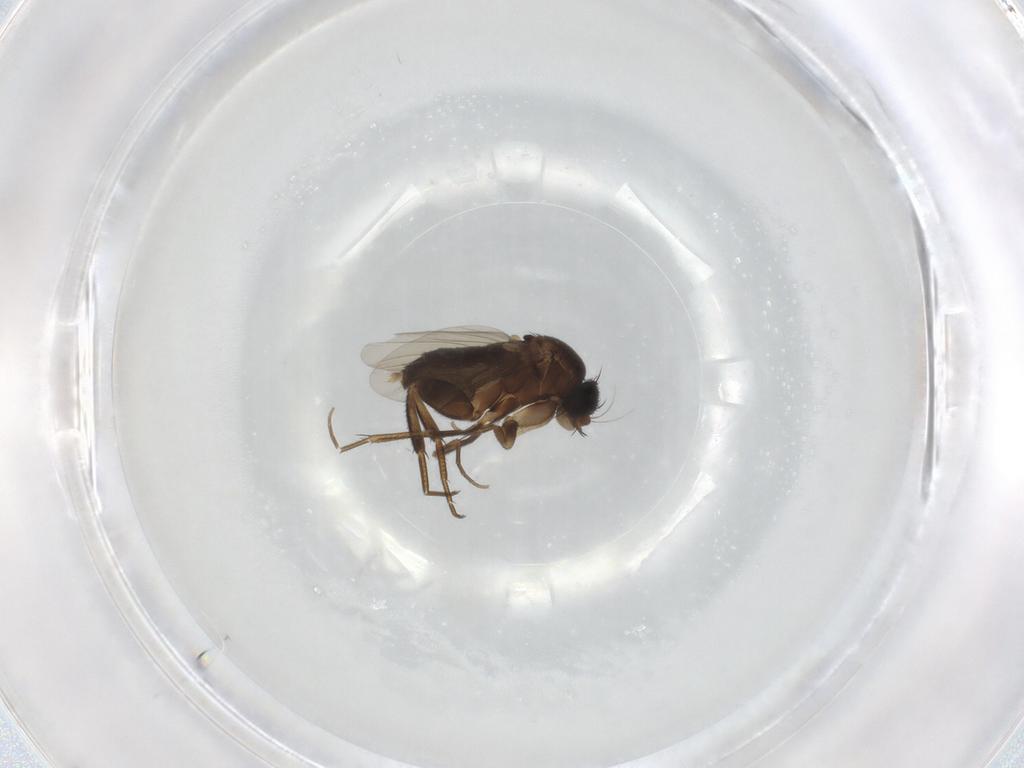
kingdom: Animalia
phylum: Arthropoda
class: Insecta
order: Diptera
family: Phoridae
